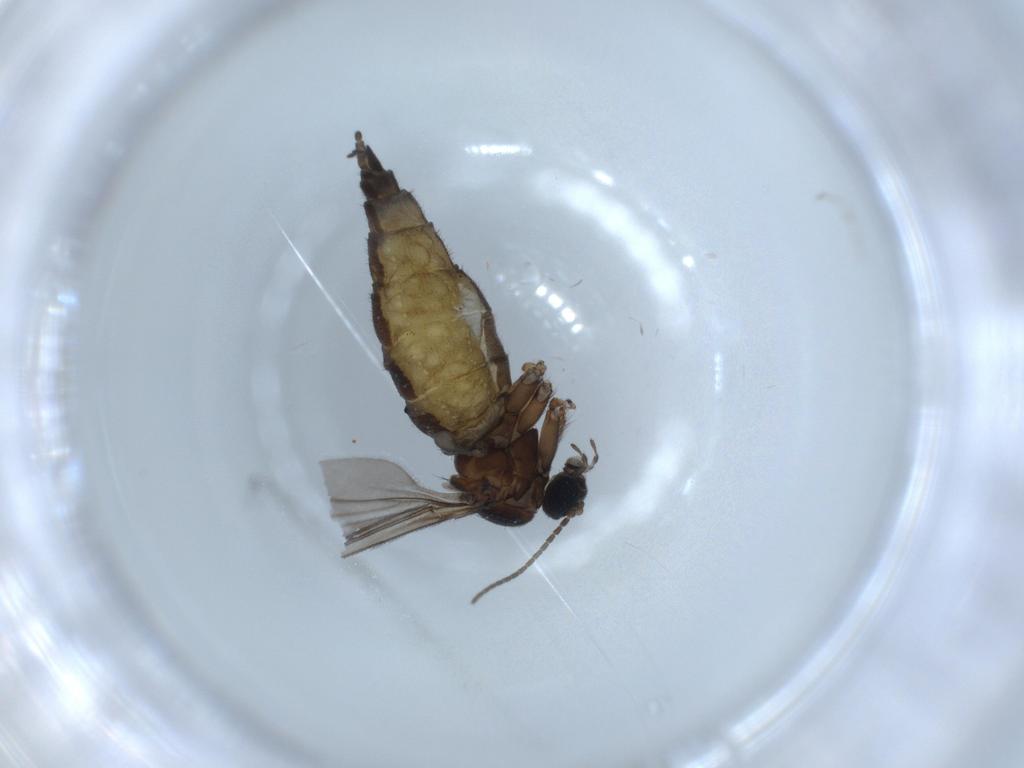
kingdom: Animalia
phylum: Arthropoda
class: Insecta
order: Diptera
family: Sciaridae
